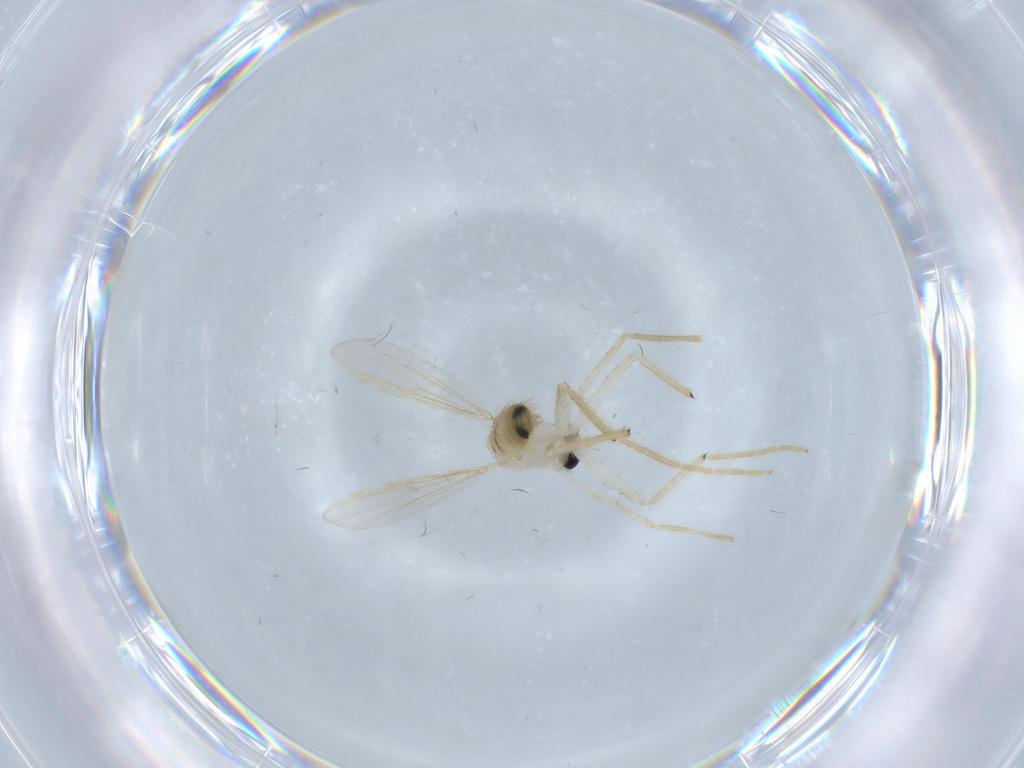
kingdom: Animalia
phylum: Arthropoda
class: Insecta
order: Diptera
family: Chironomidae
